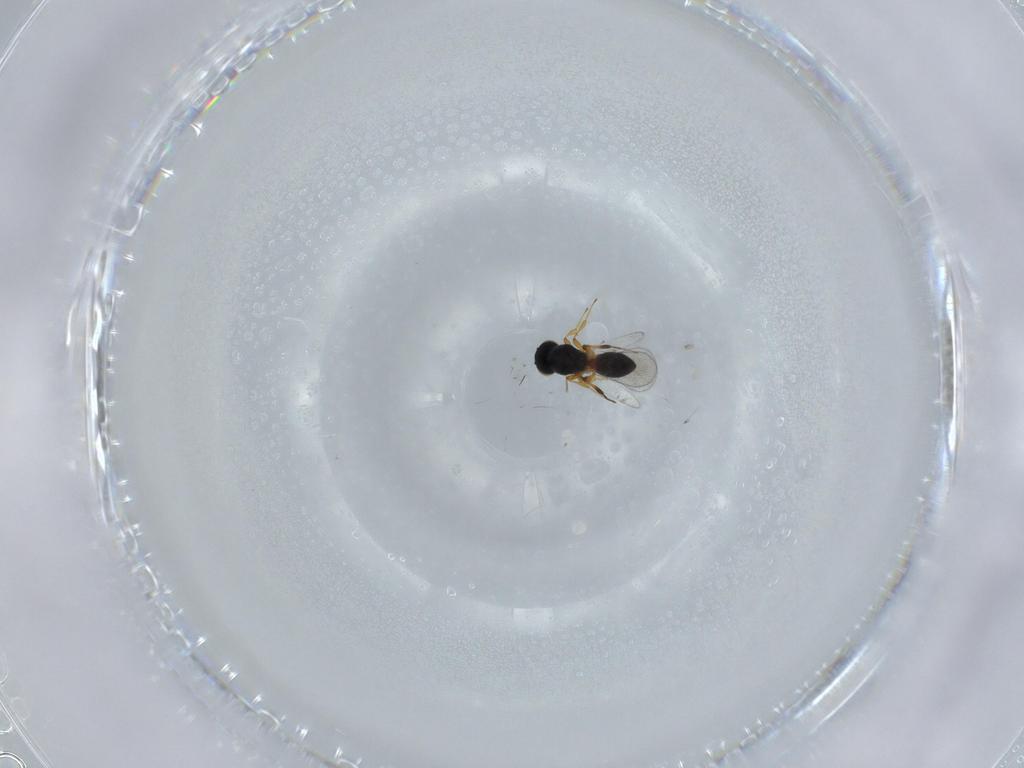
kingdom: Animalia
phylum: Arthropoda
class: Insecta
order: Hymenoptera
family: Platygastridae
